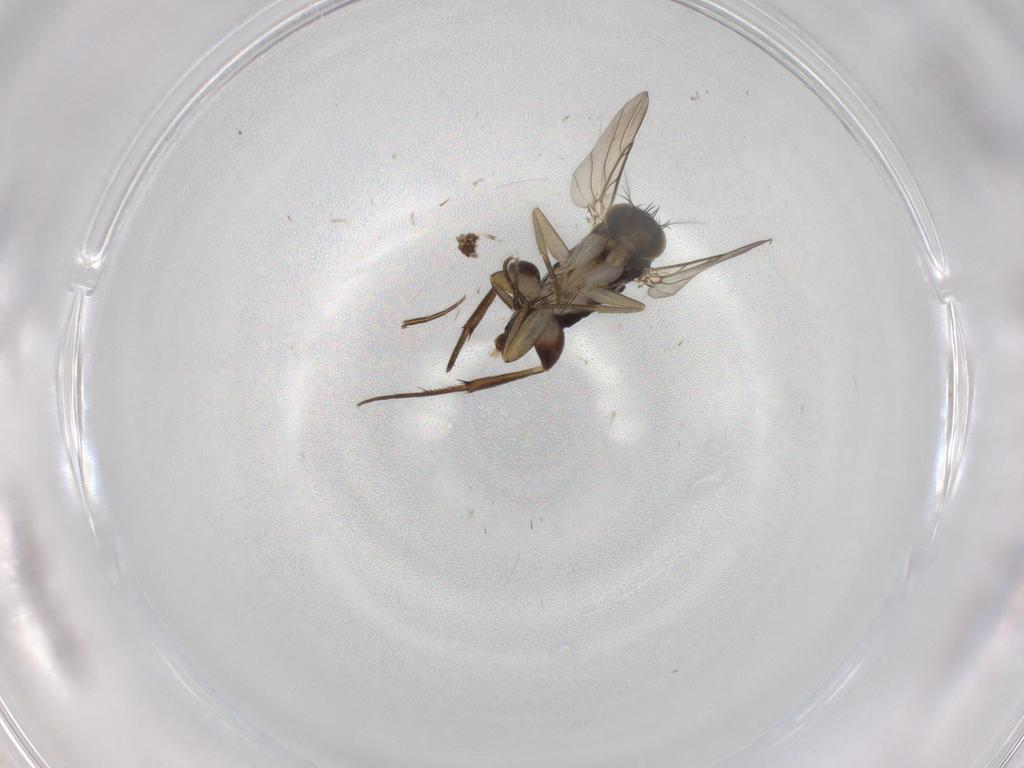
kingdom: Animalia
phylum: Arthropoda
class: Insecta
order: Diptera
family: Phoridae
